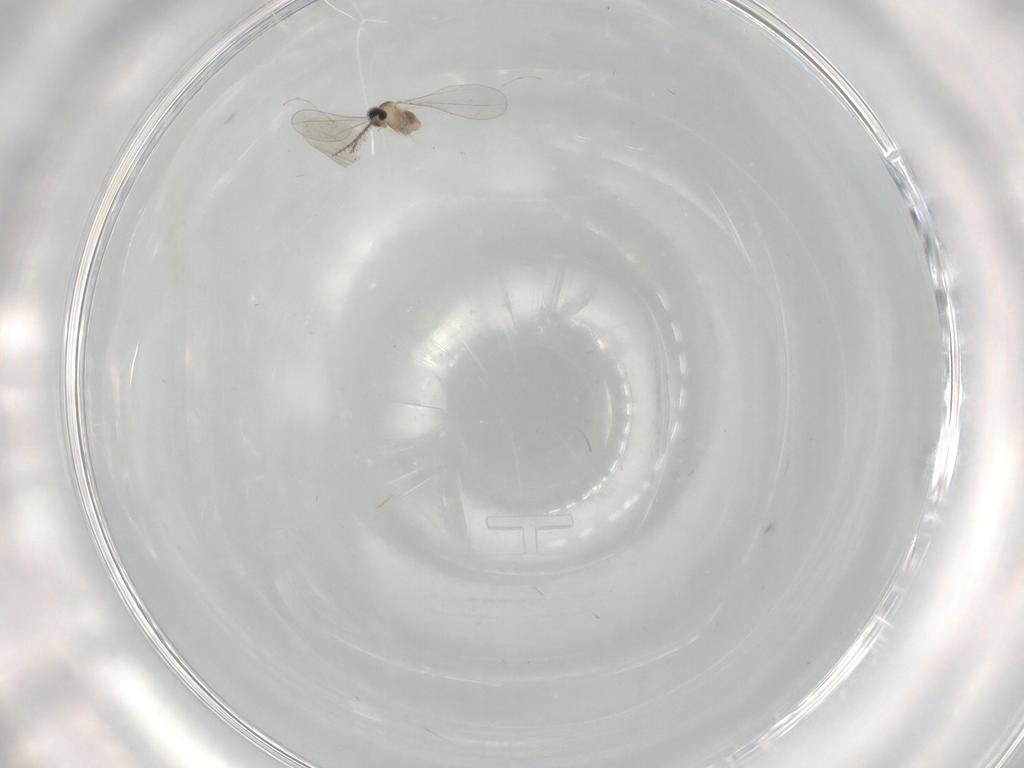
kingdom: Animalia
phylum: Arthropoda
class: Insecta
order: Diptera
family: Cecidomyiidae
